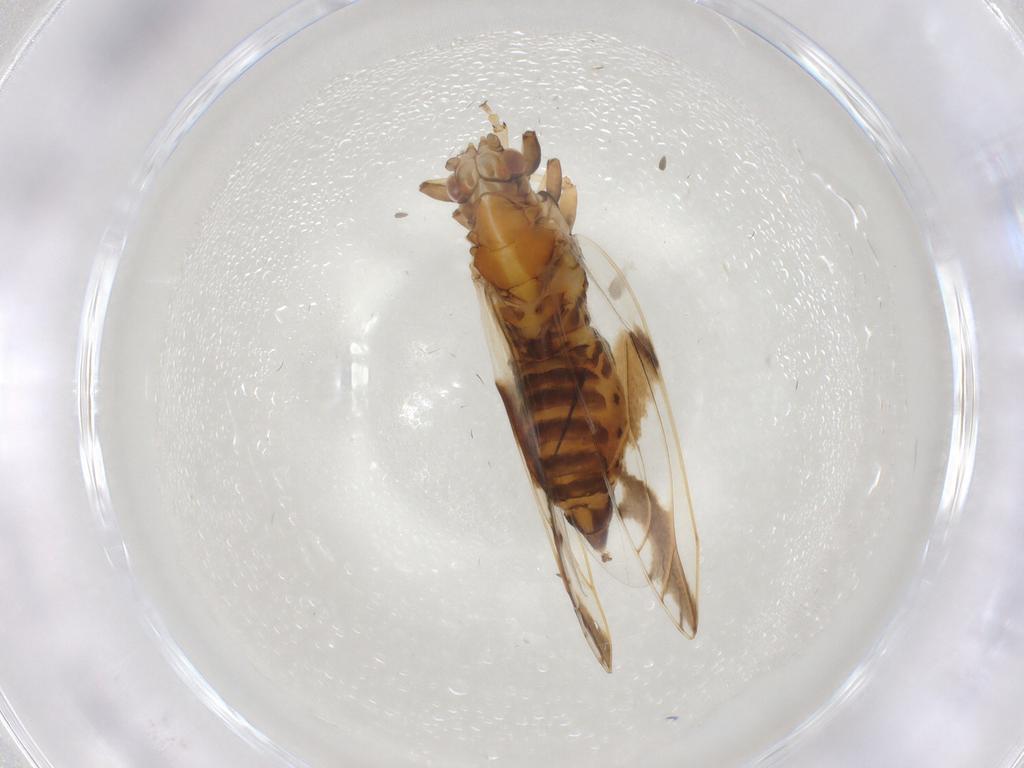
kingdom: Animalia
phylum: Arthropoda
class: Insecta
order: Hemiptera
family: Triozidae
